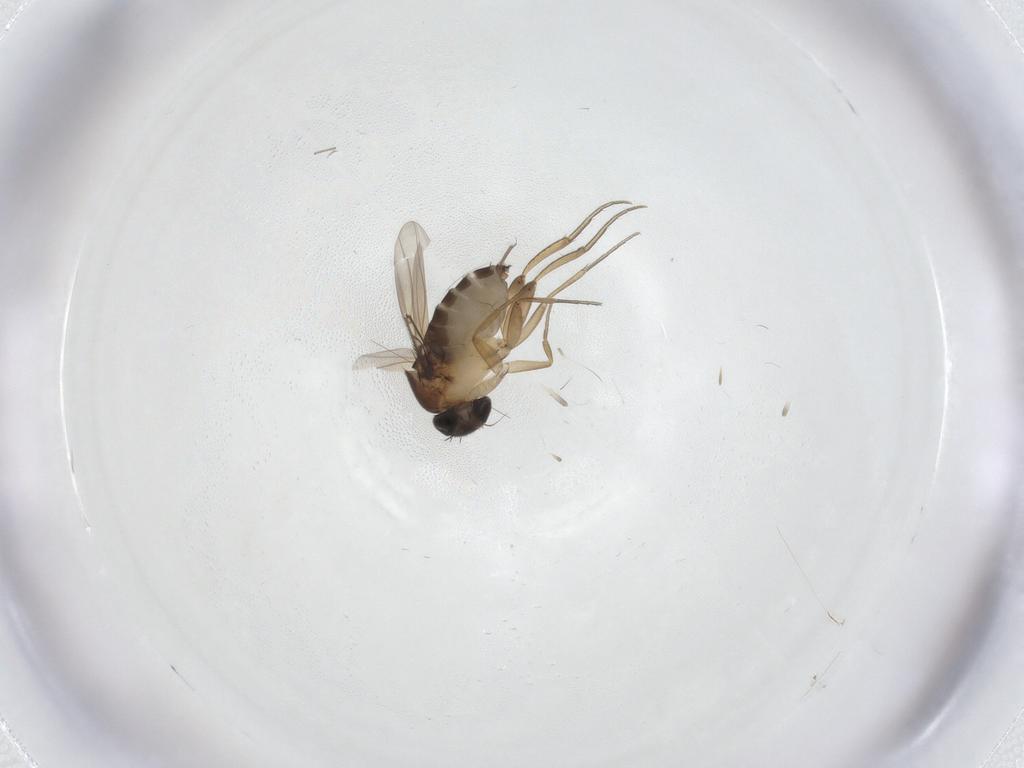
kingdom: Animalia
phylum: Arthropoda
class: Insecta
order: Diptera
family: Phoridae
